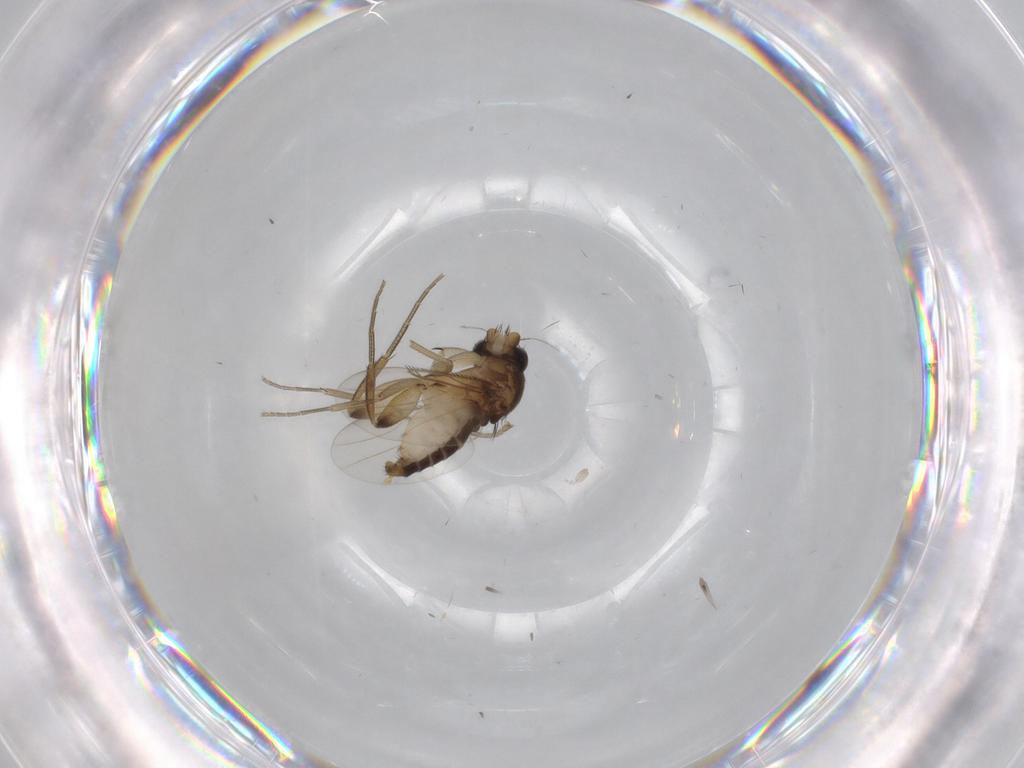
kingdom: Animalia
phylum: Arthropoda
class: Insecta
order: Diptera
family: Phoridae
